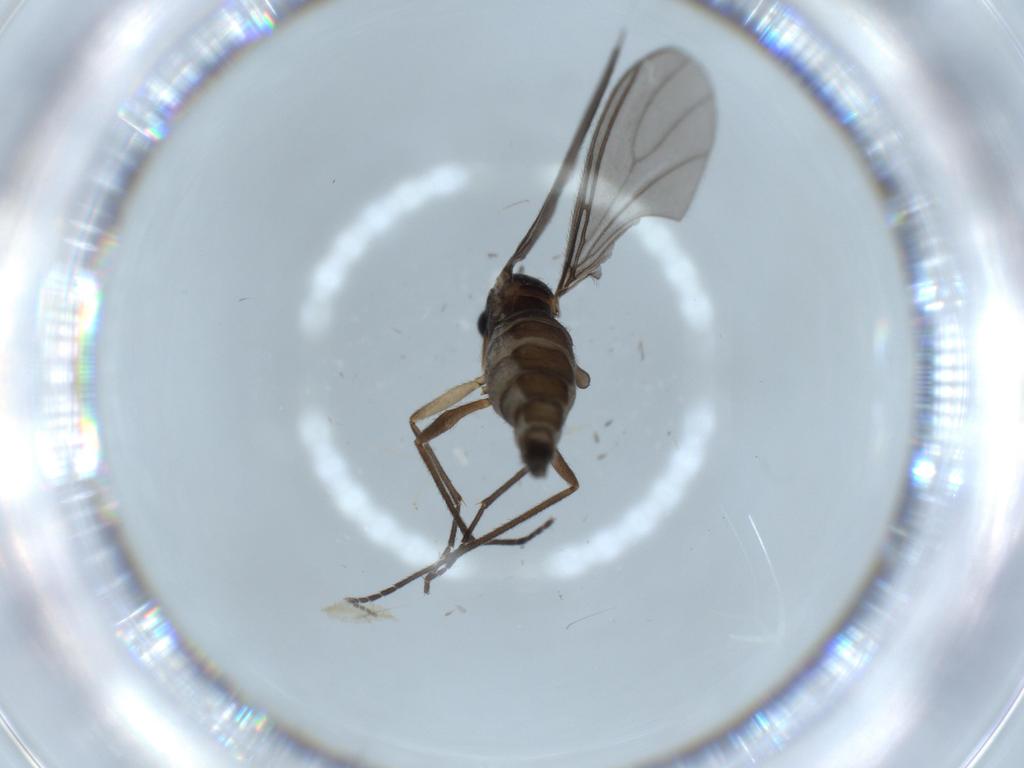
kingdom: Animalia
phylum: Arthropoda
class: Insecta
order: Diptera
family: Sciaridae
